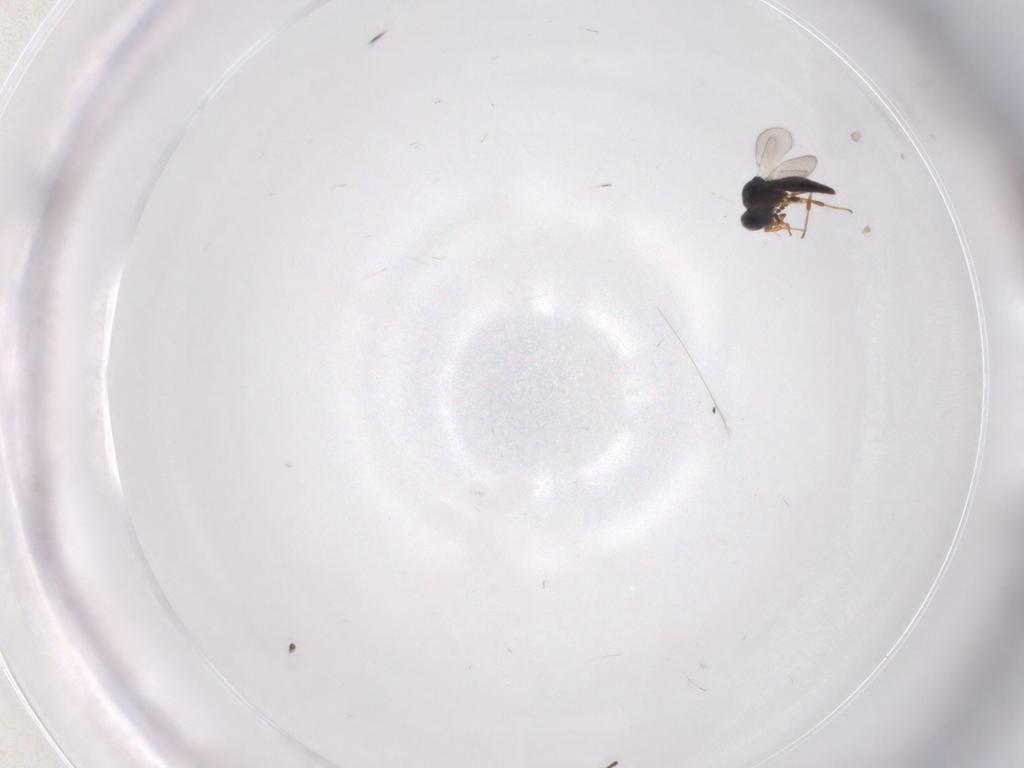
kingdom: Animalia
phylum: Arthropoda
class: Insecta
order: Hymenoptera
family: Platygastridae
